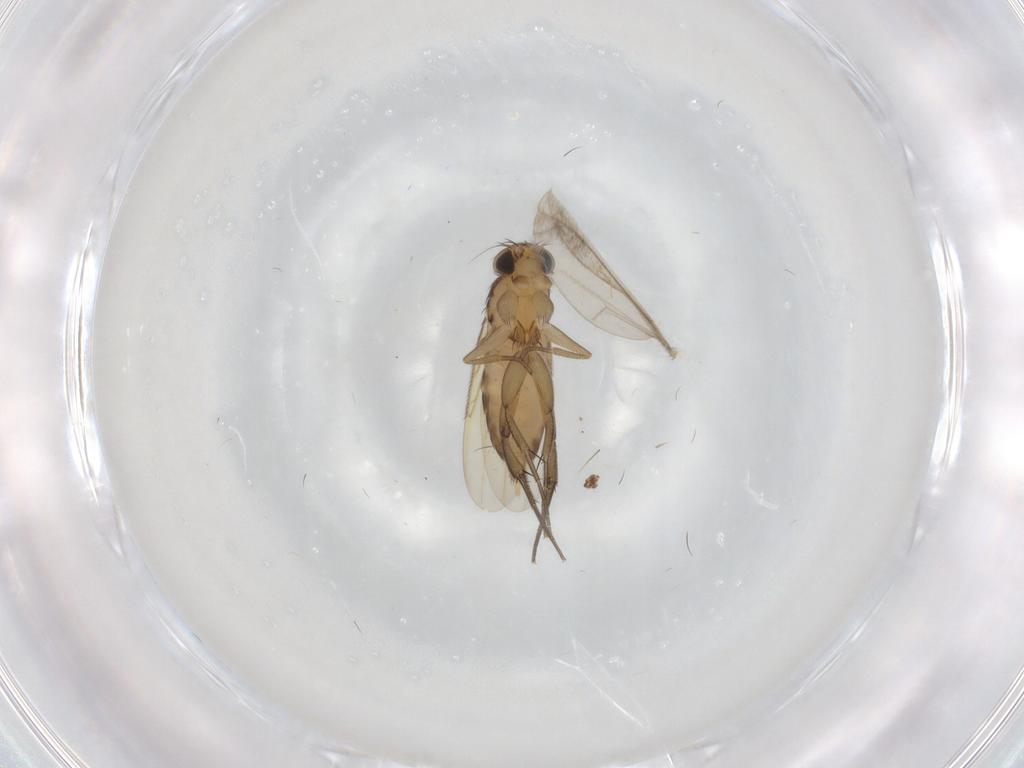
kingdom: Animalia
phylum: Arthropoda
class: Insecta
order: Diptera
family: Phoridae
